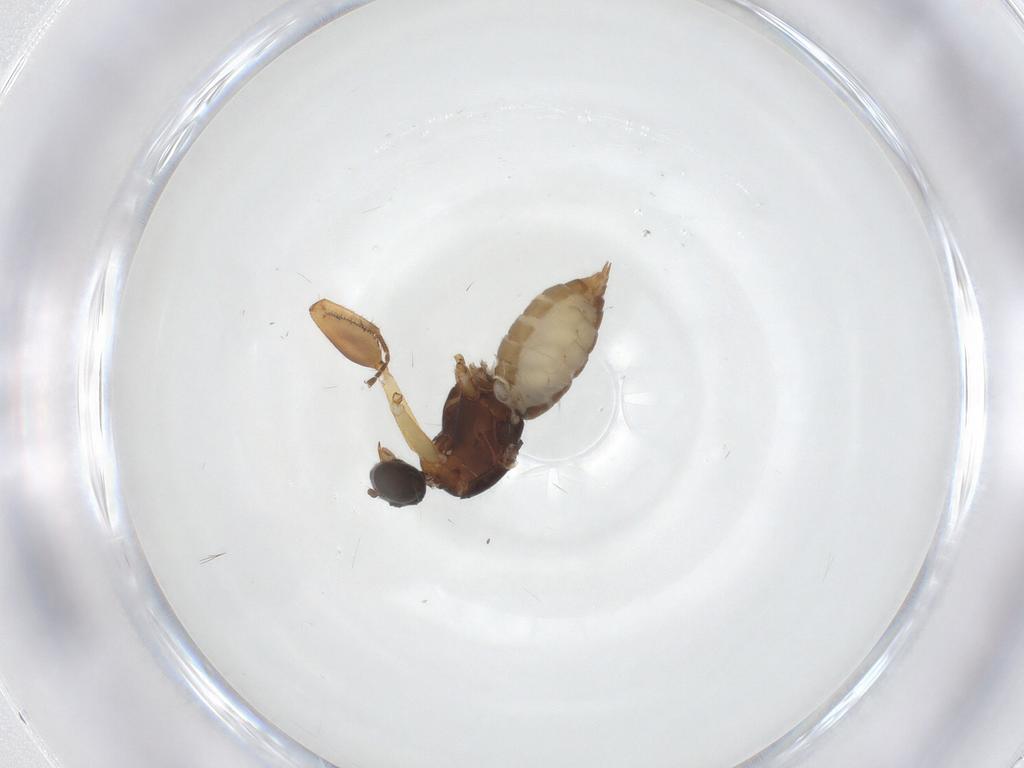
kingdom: Animalia
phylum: Arthropoda
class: Insecta
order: Diptera
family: Empididae
